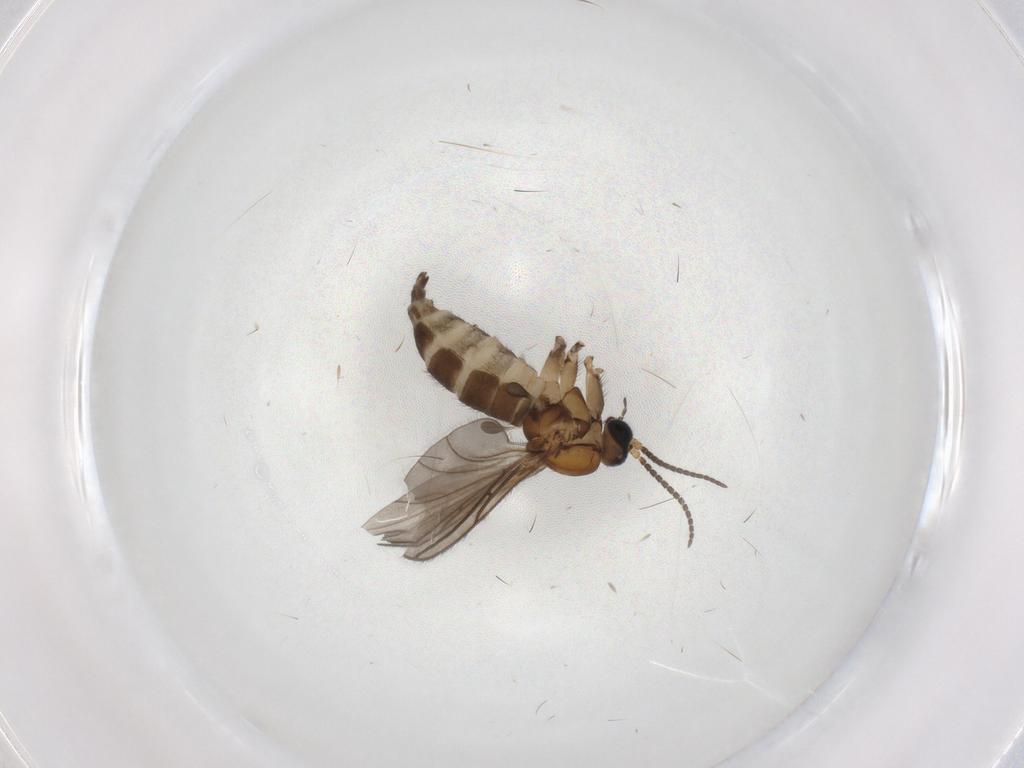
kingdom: Animalia
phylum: Arthropoda
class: Insecta
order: Diptera
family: Sciaridae
